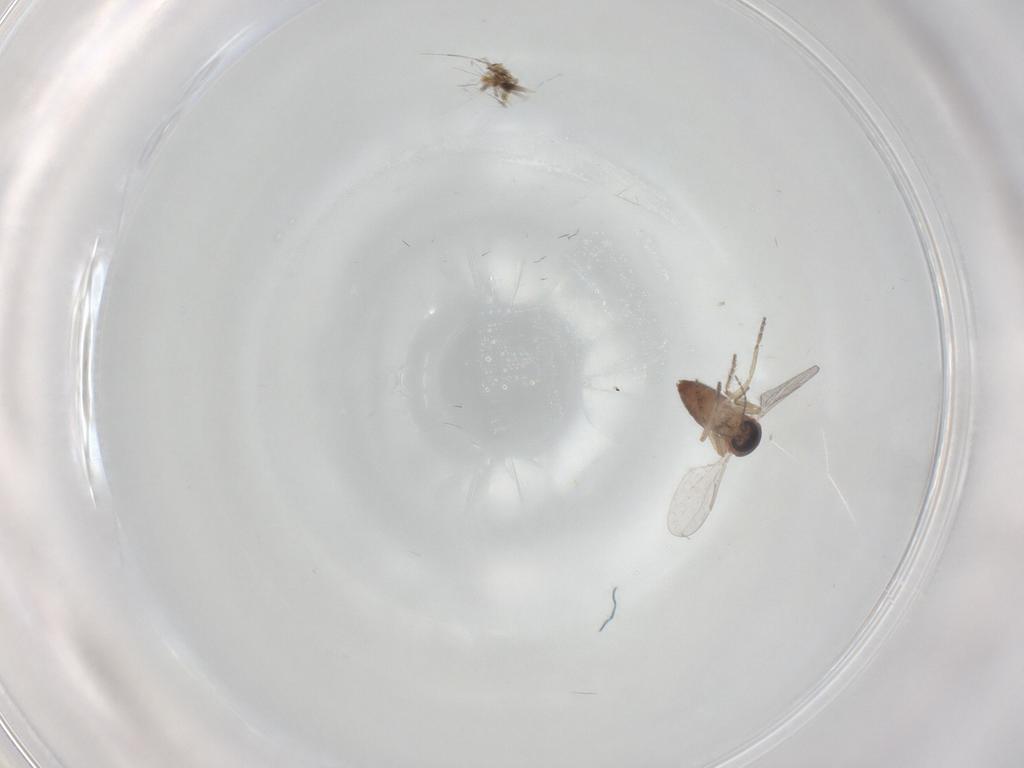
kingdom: Animalia
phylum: Arthropoda
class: Insecta
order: Diptera
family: Ceratopogonidae
